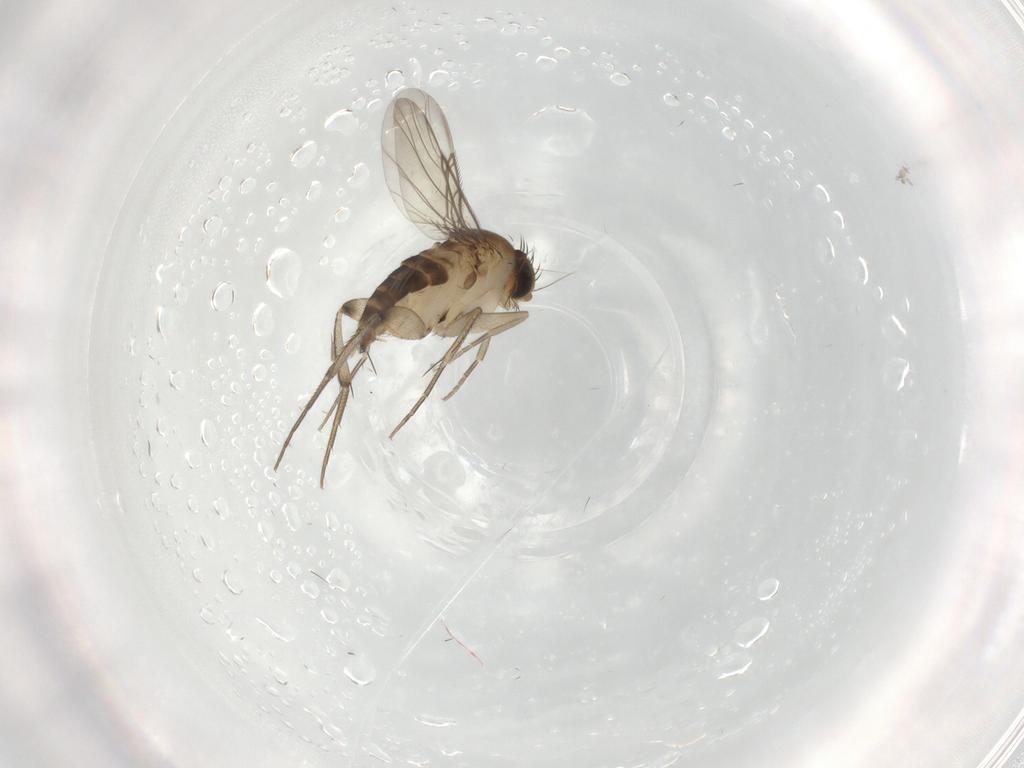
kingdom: Animalia
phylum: Arthropoda
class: Insecta
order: Diptera
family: Phoridae
